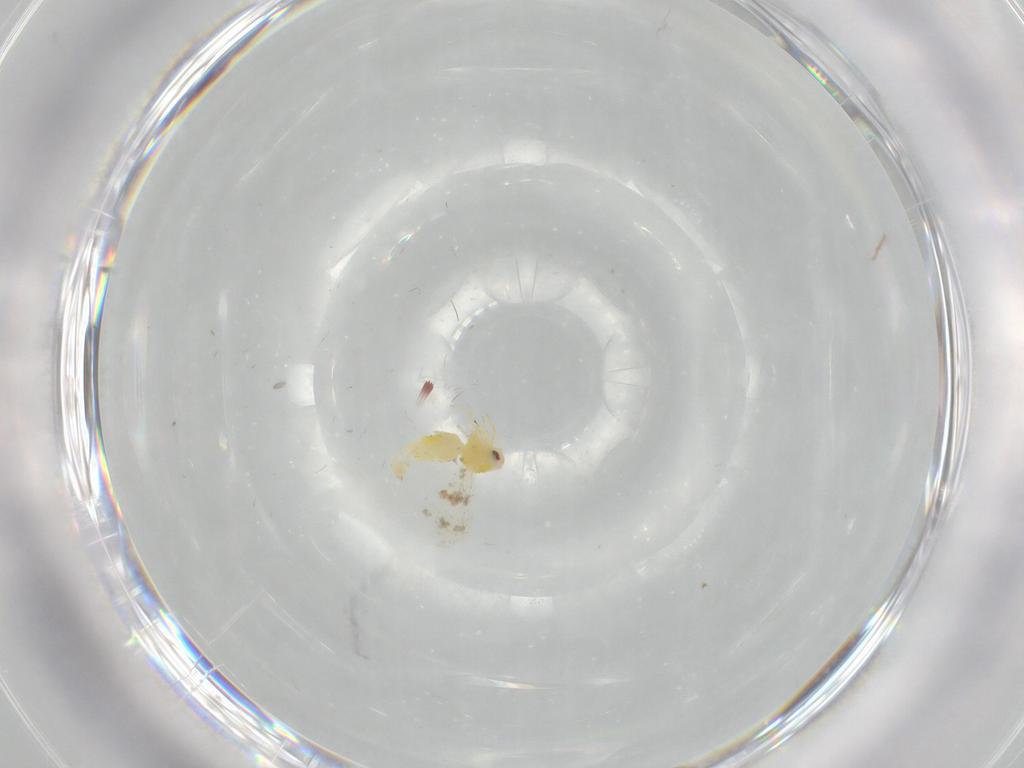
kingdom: Animalia
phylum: Arthropoda
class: Insecta
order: Hemiptera
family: Aleyrodidae
